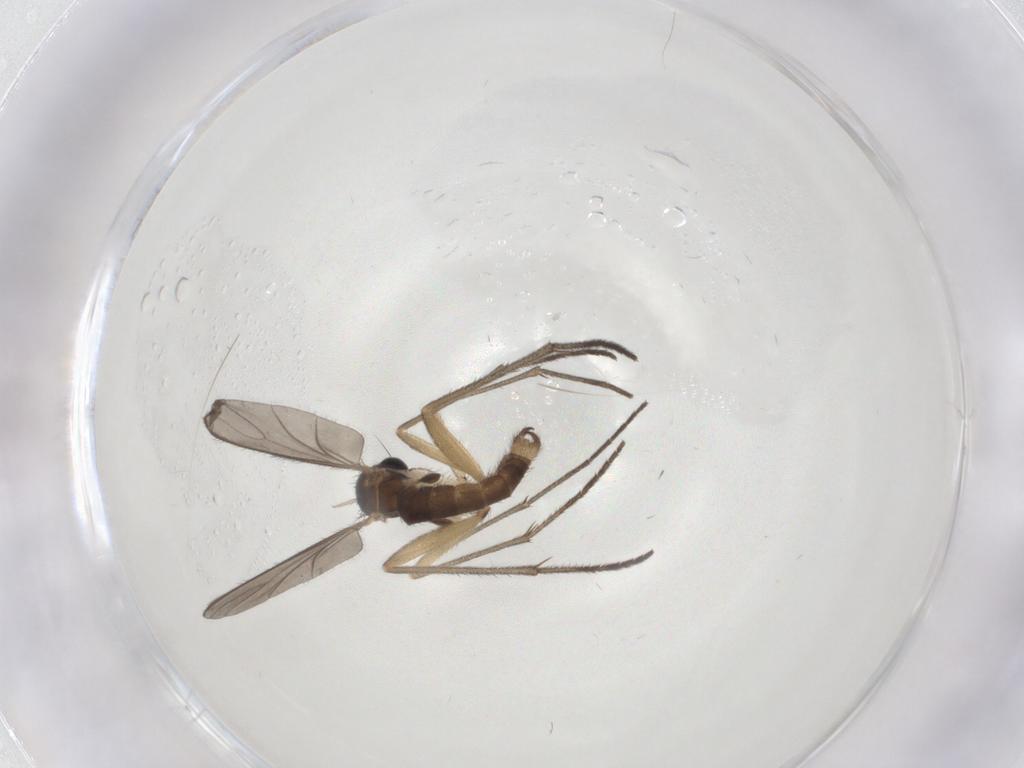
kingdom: Animalia
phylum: Arthropoda
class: Insecta
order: Diptera
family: Sciaridae
